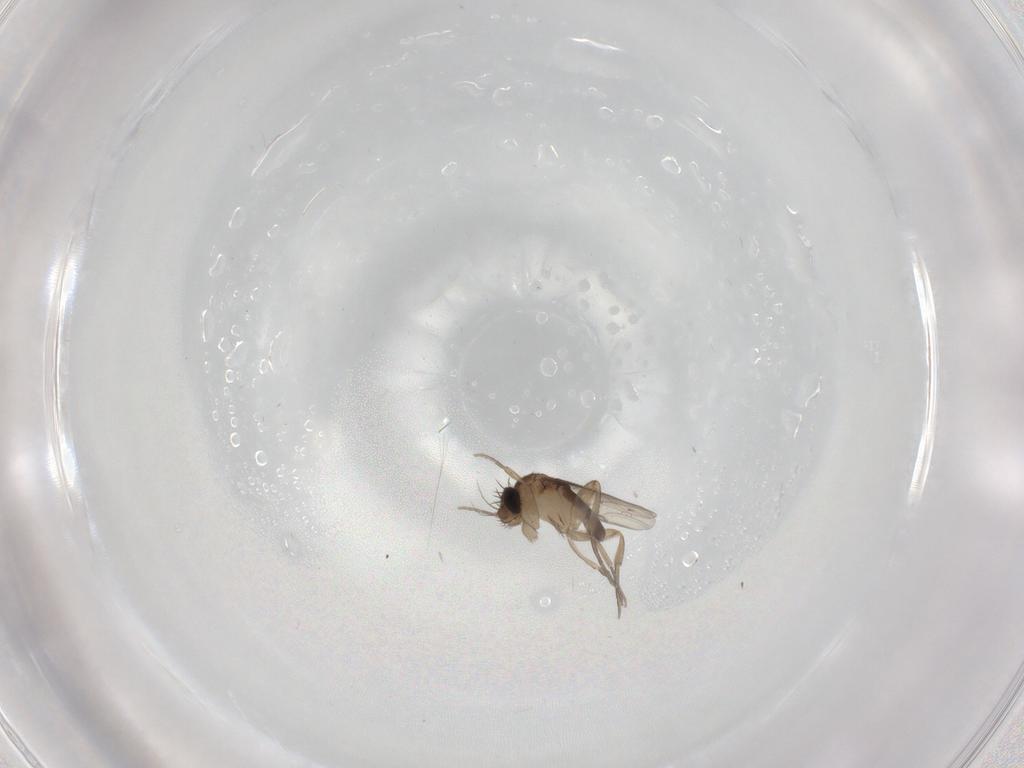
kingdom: Animalia
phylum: Arthropoda
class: Insecta
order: Diptera
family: Phoridae
